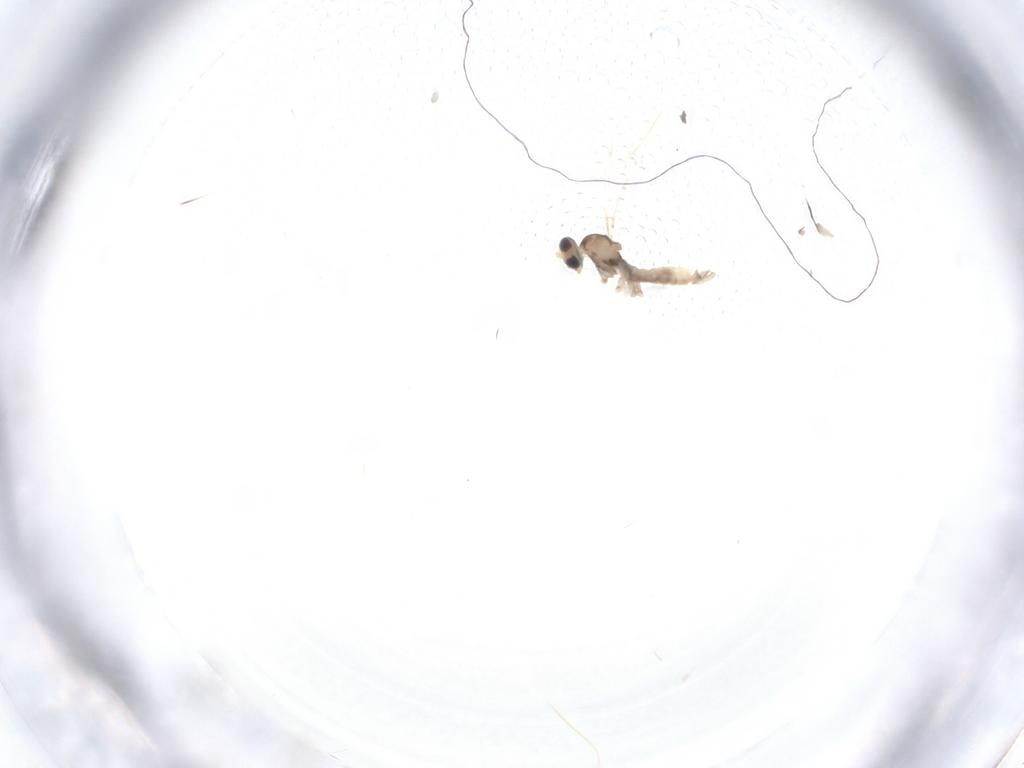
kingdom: Animalia
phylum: Arthropoda
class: Insecta
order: Diptera
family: Cecidomyiidae
